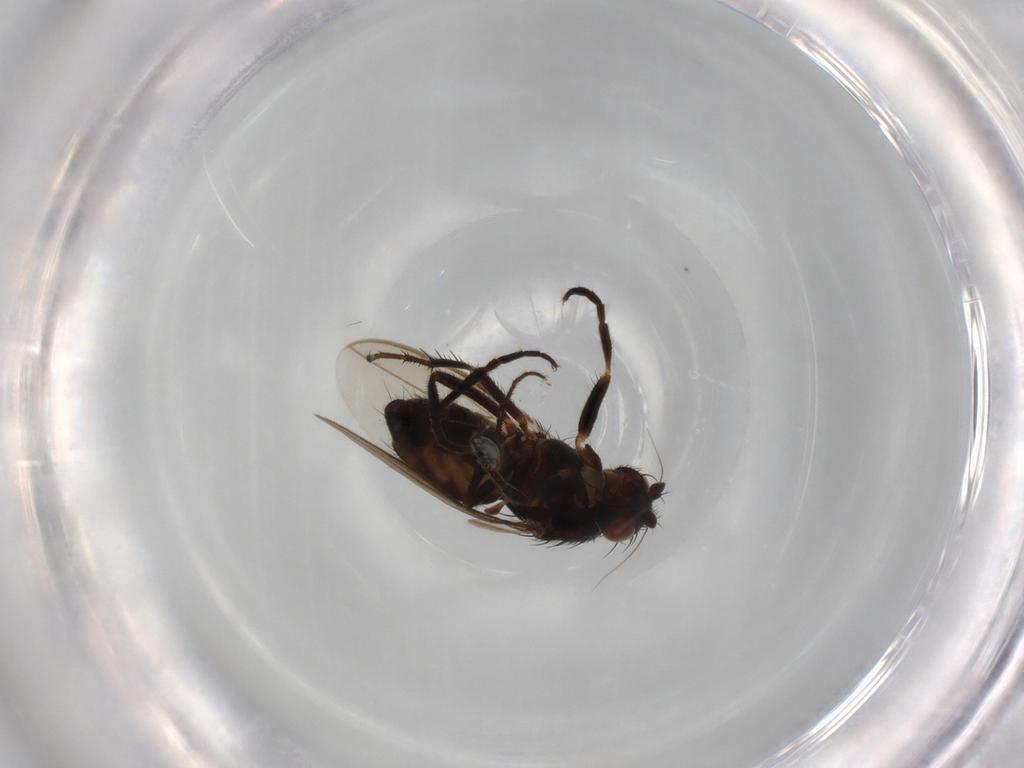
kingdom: Animalia
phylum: Arthropoda
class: Insecta
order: Diptera
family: Sphaeroceridae
